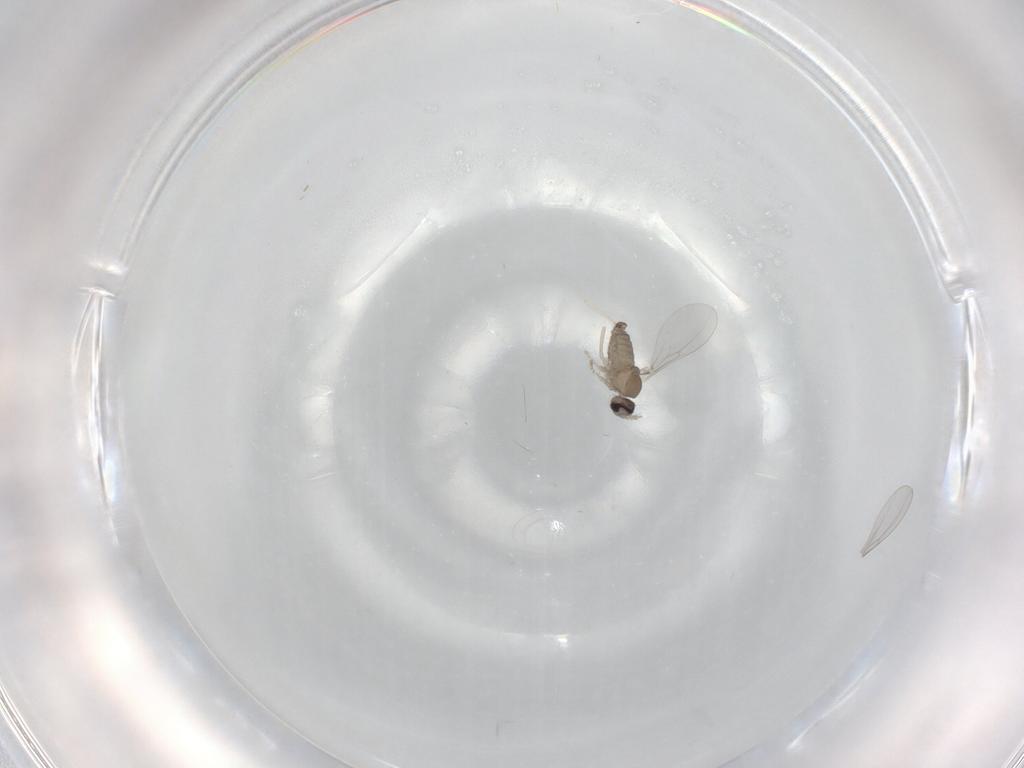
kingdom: Animalia
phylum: Arthropoda
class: Insecta
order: Diptera
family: Cecidomyiidae
